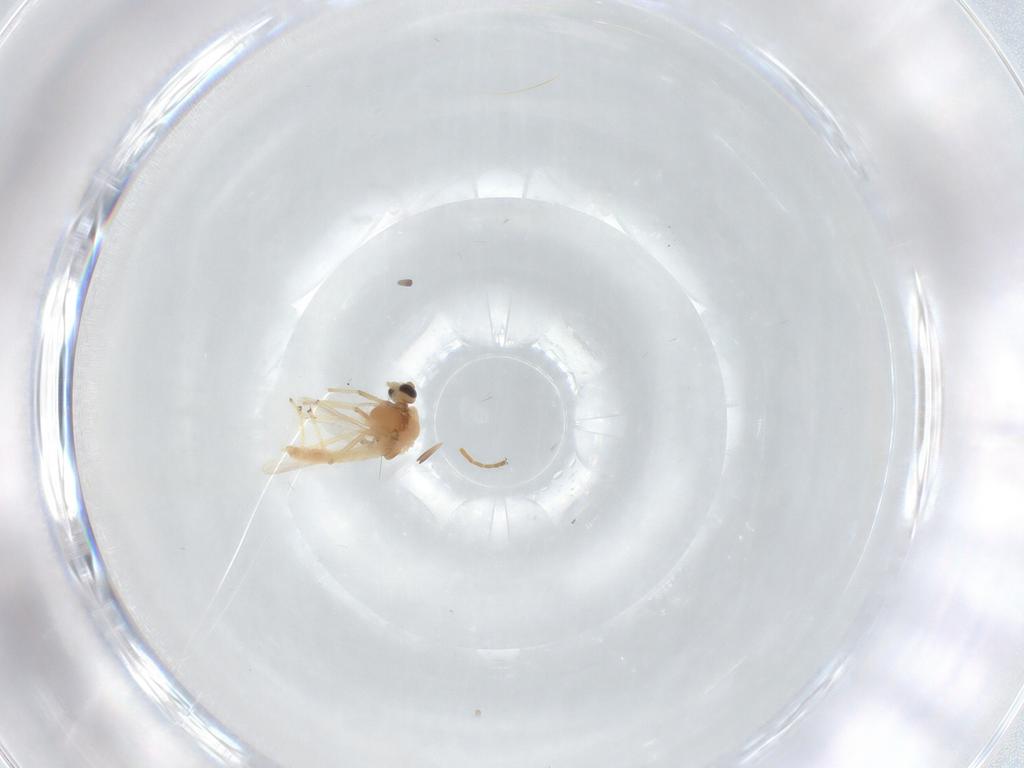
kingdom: Animalia
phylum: Arthropoda
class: Insecta
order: Diptera
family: Chironomidae
